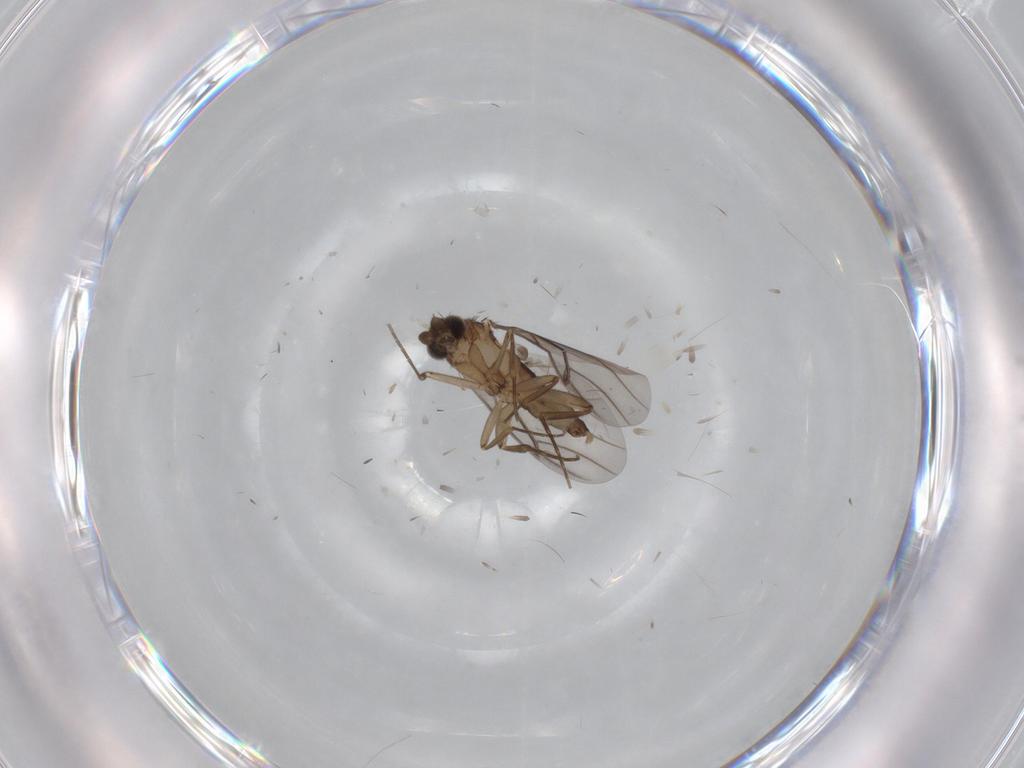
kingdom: Animalia
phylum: Arthropoda
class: Insecta
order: Diptera
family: Phoridae
